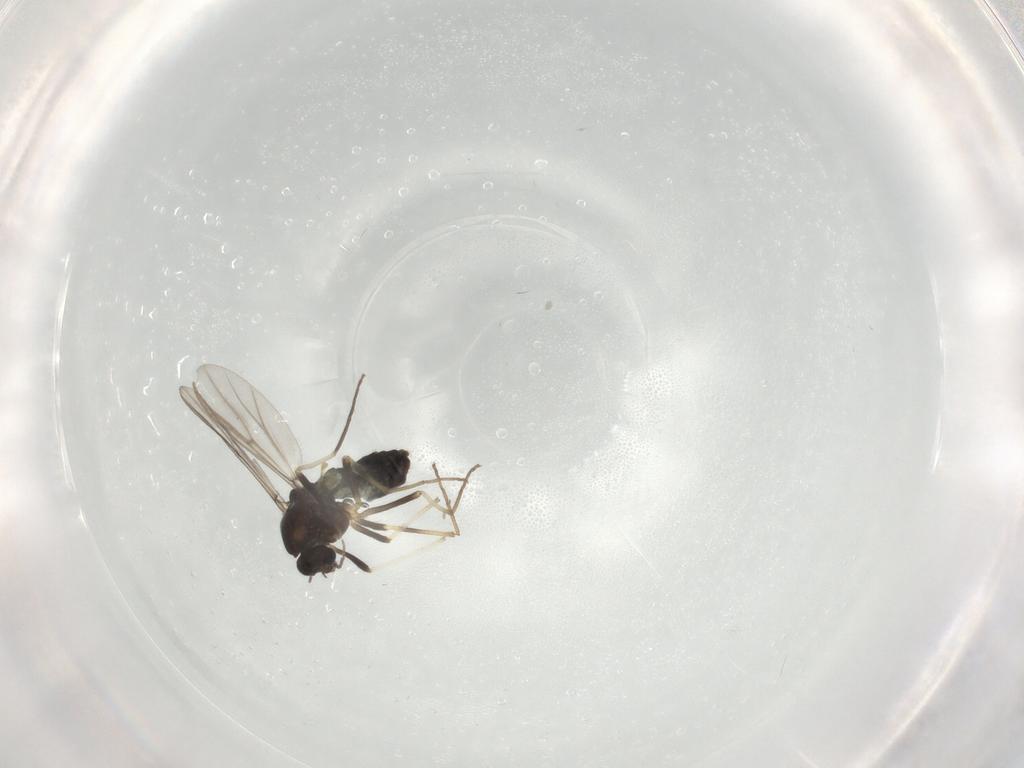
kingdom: Animalia
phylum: Arthropoda
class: Insecta
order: Diptera
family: Chironomidae
